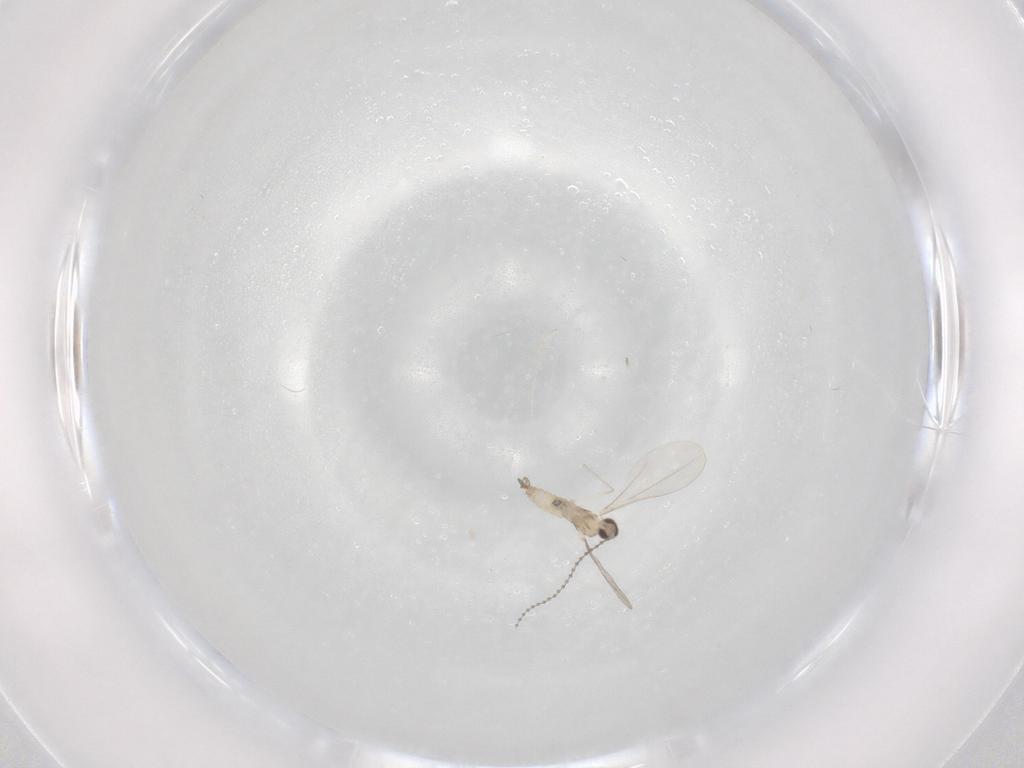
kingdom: Animalia
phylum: Arthropoda
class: Insecta
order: Diptera
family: Cecidomyiidae
